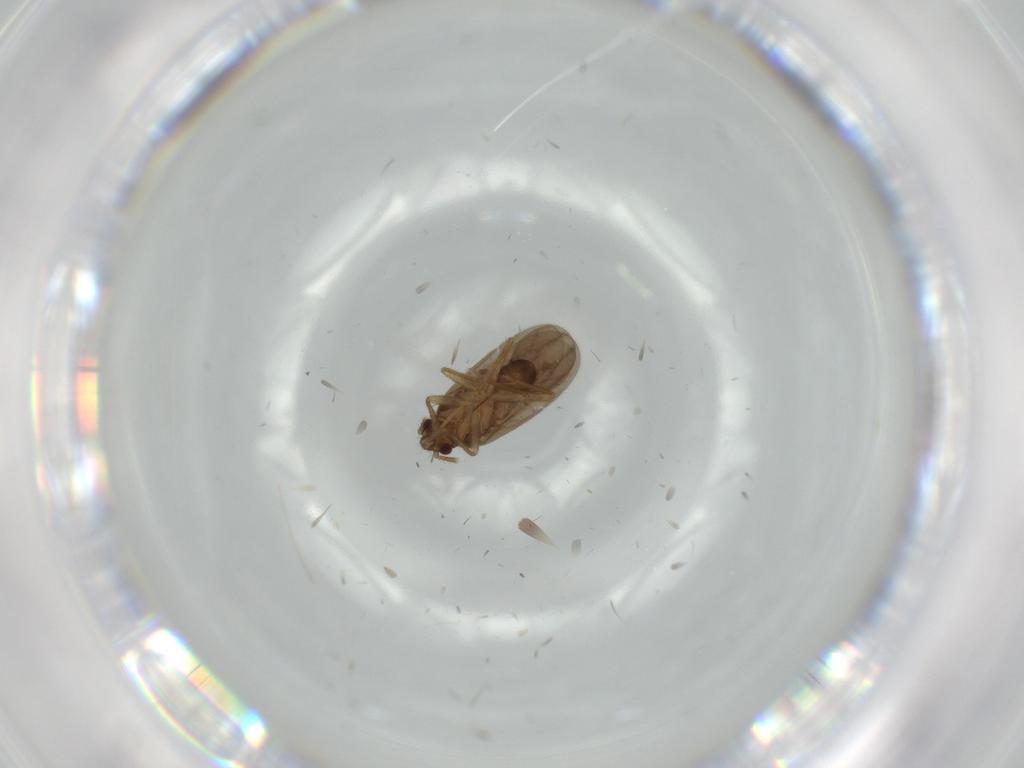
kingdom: Animalia
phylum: Arthropoda
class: Insecta
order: Hemiptera
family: Ceratocombidae
